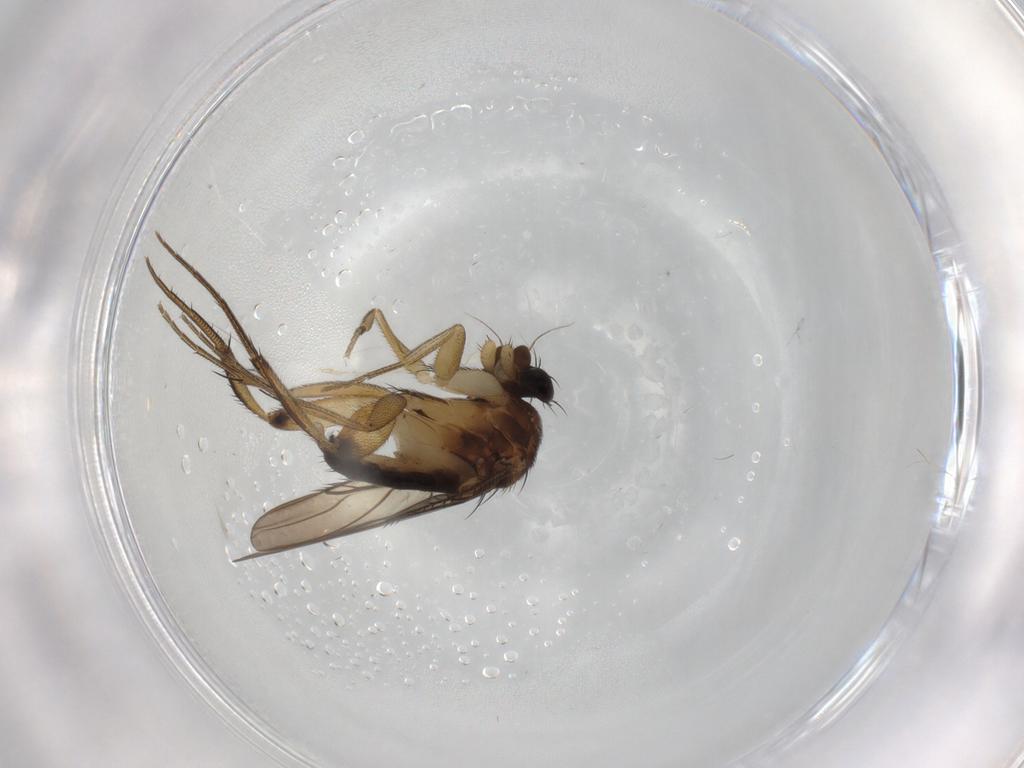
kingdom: Animalia
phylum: Arthropoda
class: Insecta
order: Diptera
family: Phoridae
